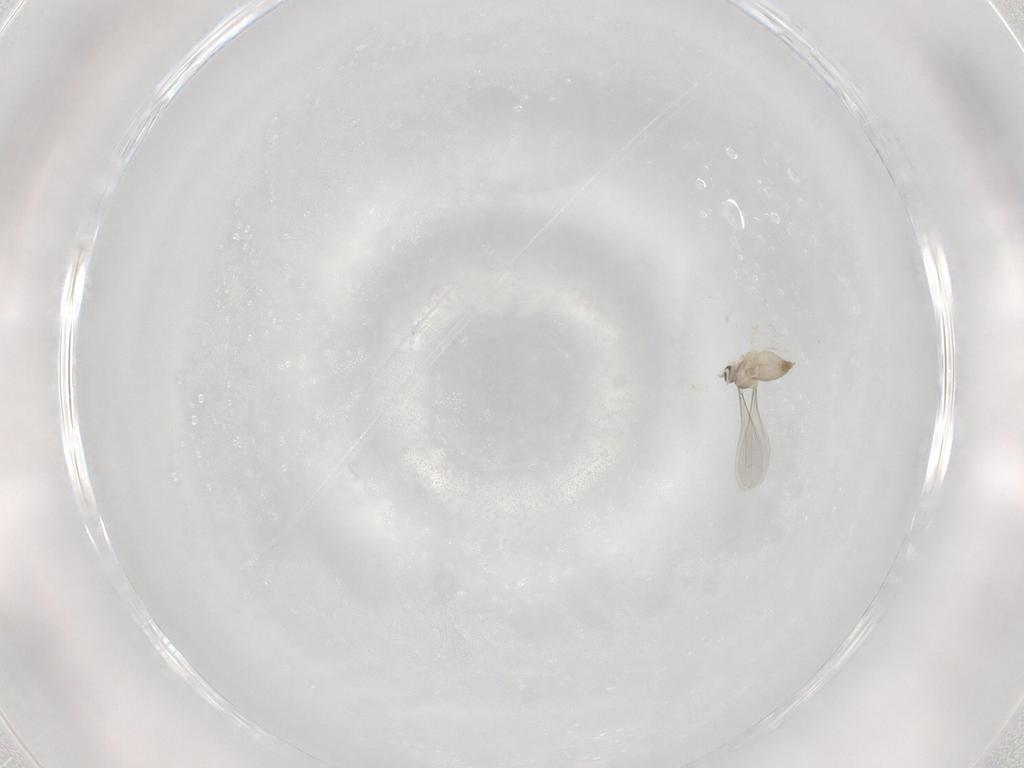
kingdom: Animalia
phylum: Arthropoda
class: Insecta
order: Diptera
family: Cecidomyiidae
